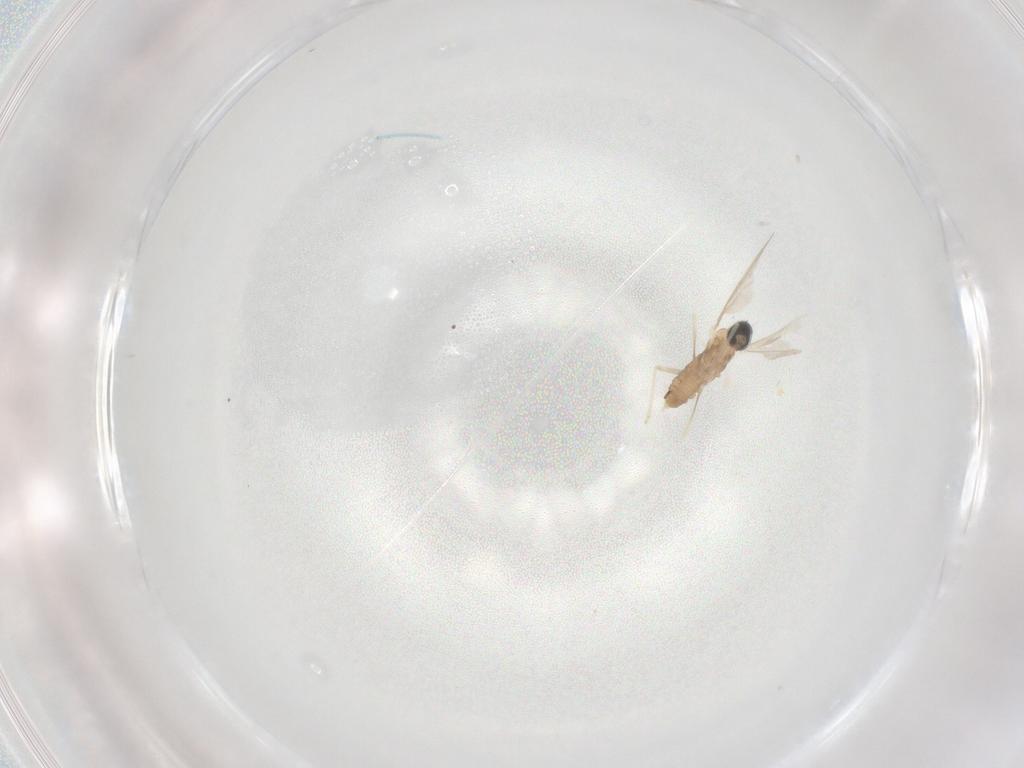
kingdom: Animalia
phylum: Arthropoda
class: Insecta
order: Diptera
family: Cecidomyiidae
